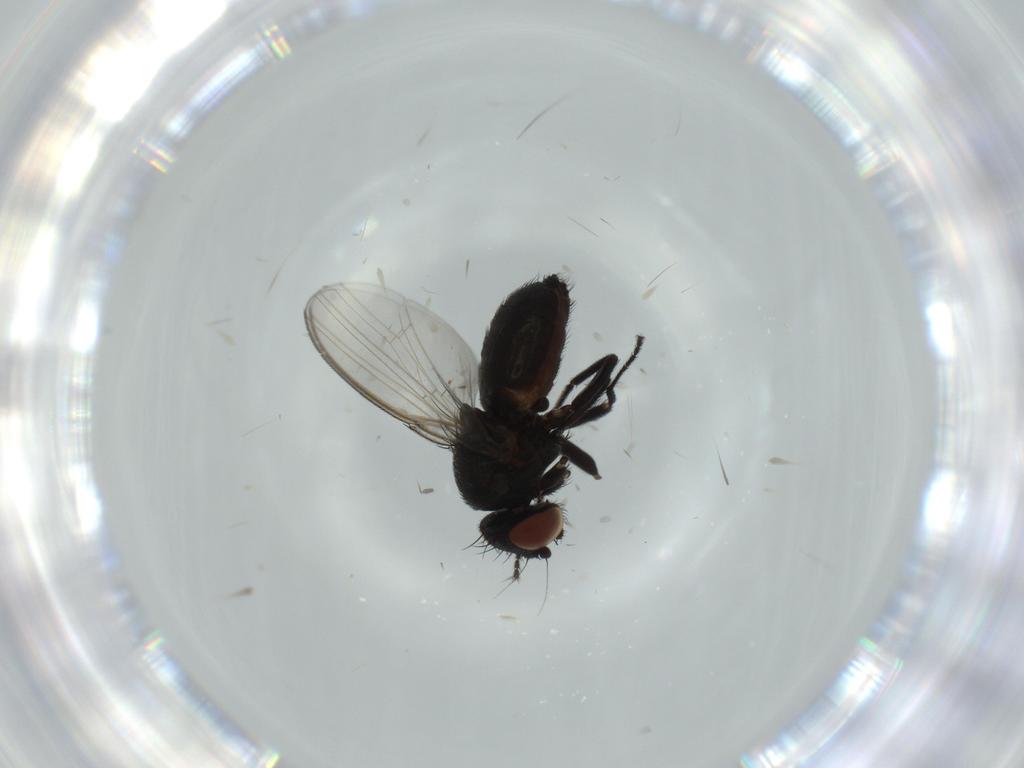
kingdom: Animalia
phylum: Arthropoda
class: Insecta
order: Diptera
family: Milichiidae
